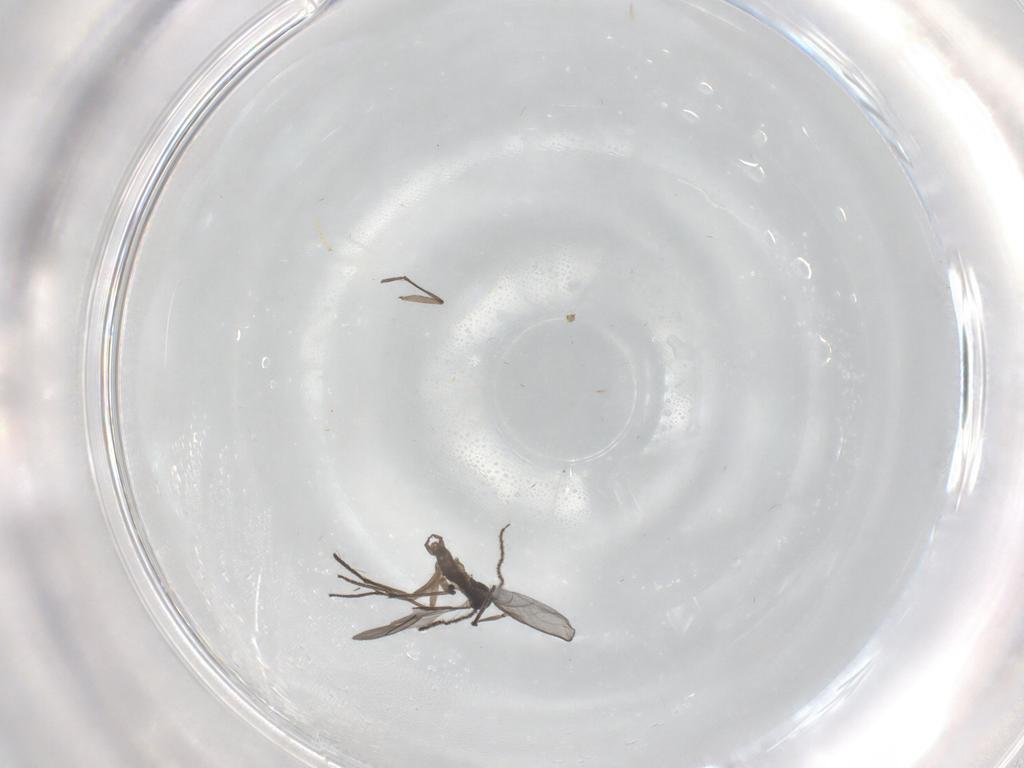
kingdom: Animalia
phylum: Arthropoda
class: Insecta
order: Diptera
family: Sciaridae
